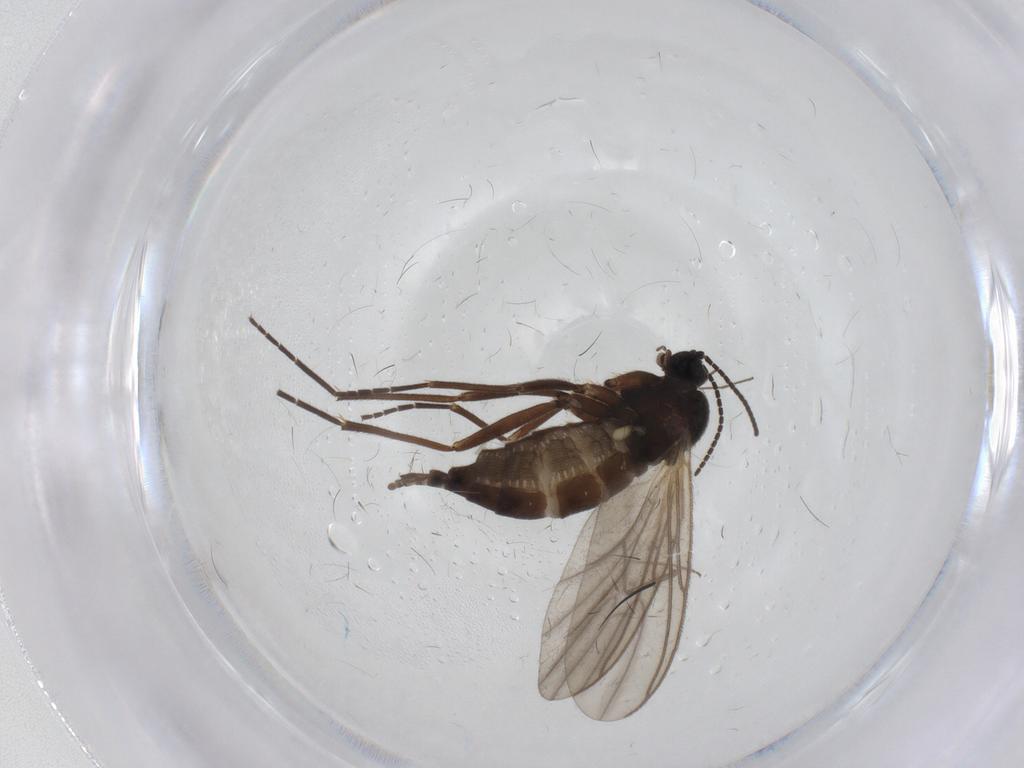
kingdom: Animalia
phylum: Arthropoda
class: Insecta
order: Diptera
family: Sciaridae
